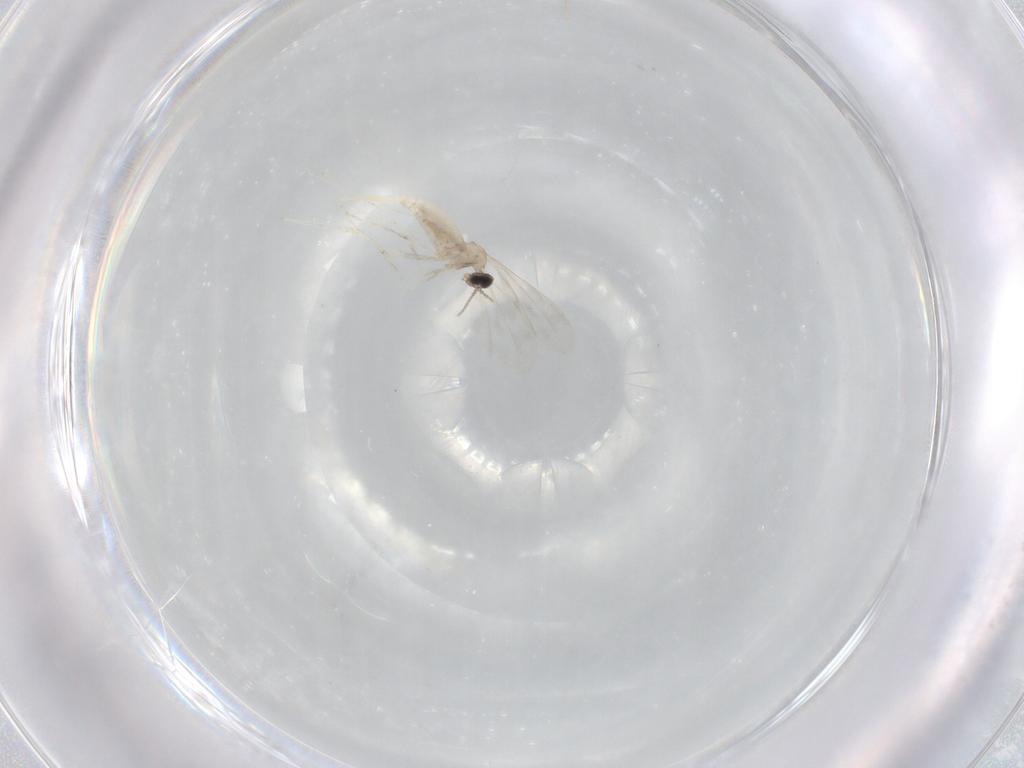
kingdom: Animalia
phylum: Arthropoda
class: Insecta
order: Diptera
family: Cecidomyiidae
